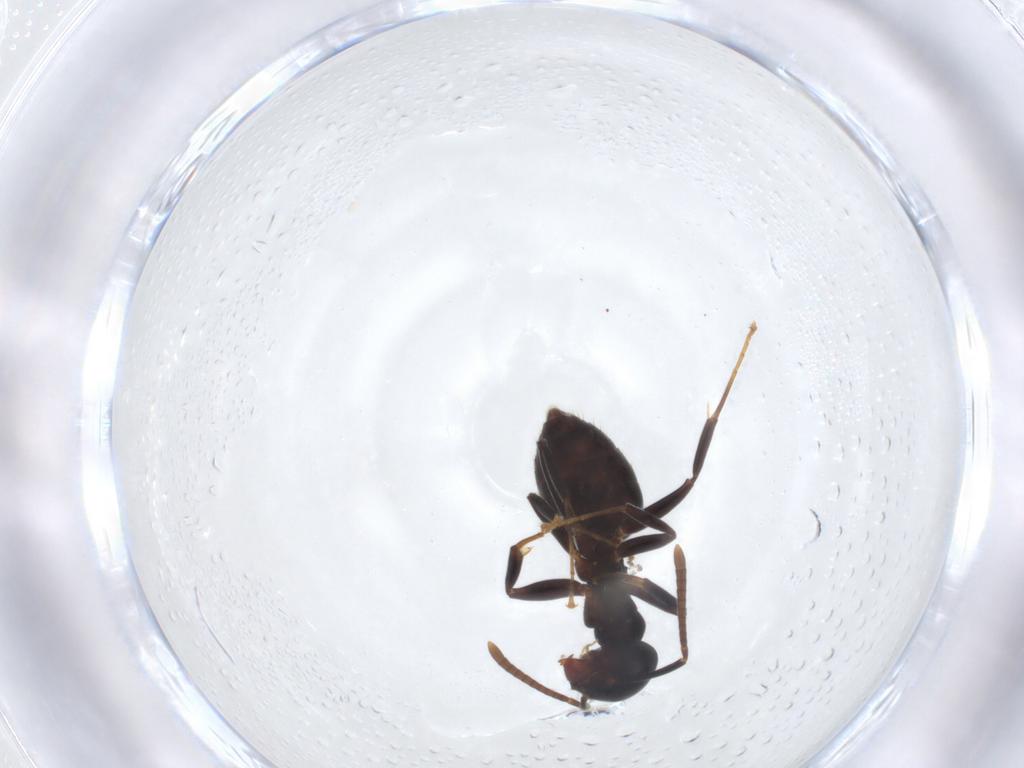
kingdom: Animalia
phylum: Arthropoda
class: Insecta
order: Hymenoptera
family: Formicidae
